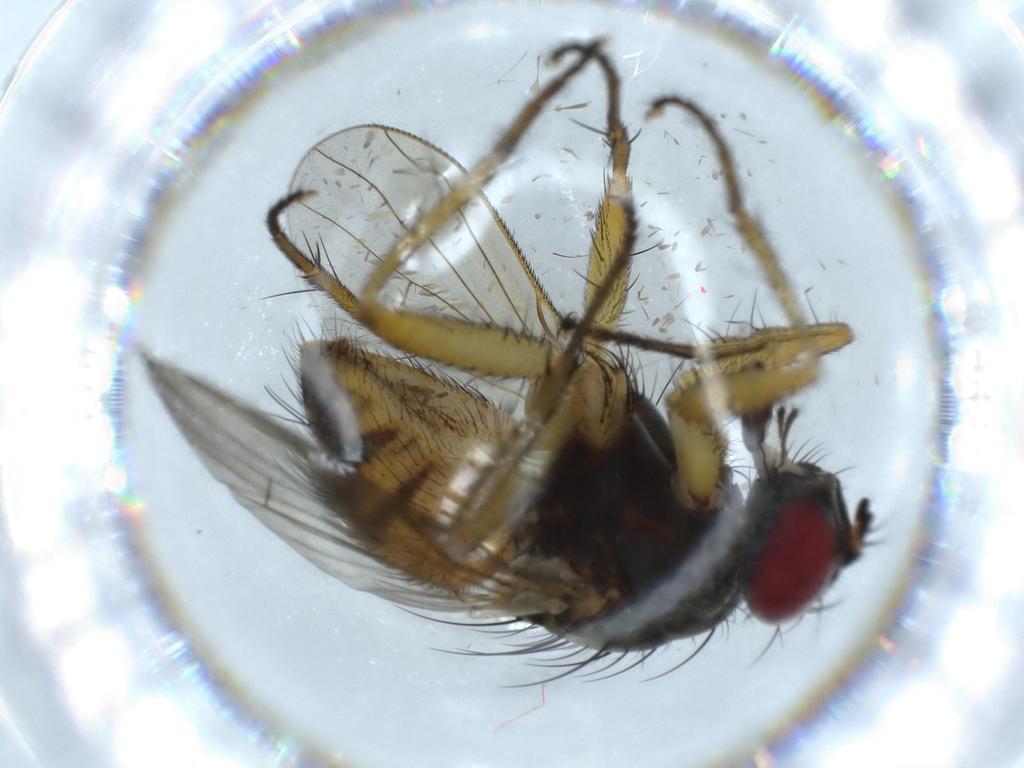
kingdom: Animalia
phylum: Arthropoda
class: Insecta
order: Diptera
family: Muscidae
